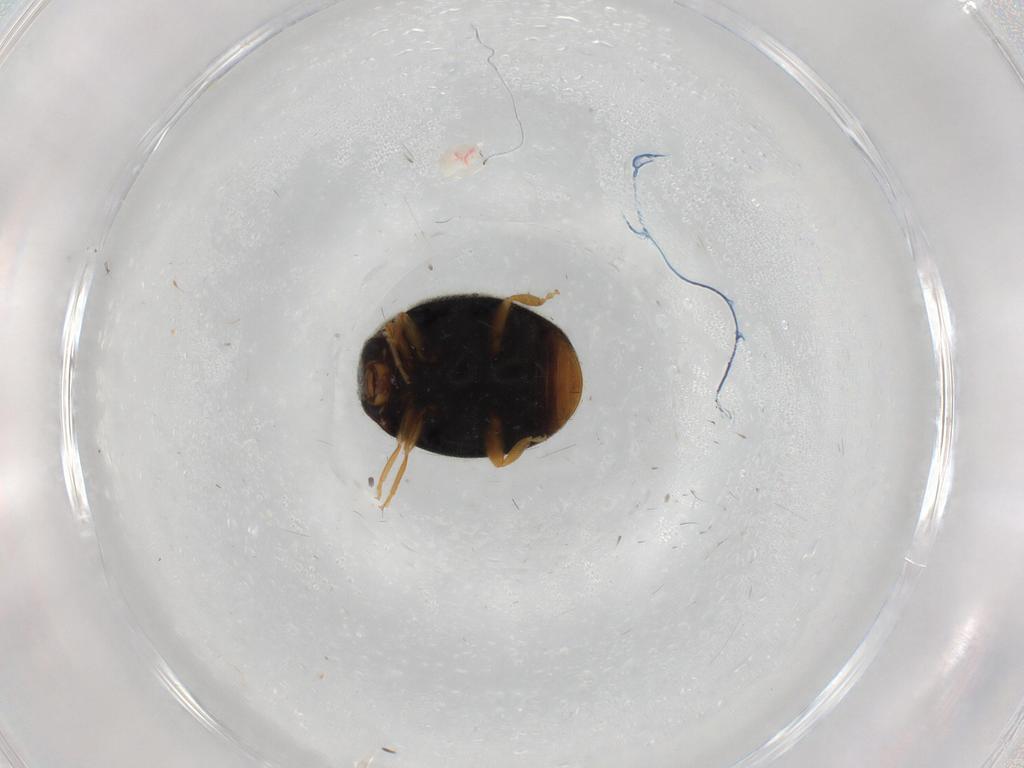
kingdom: Animalia
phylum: Arthropoda
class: Insecta
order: Coleoptera
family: Coccinellidae
